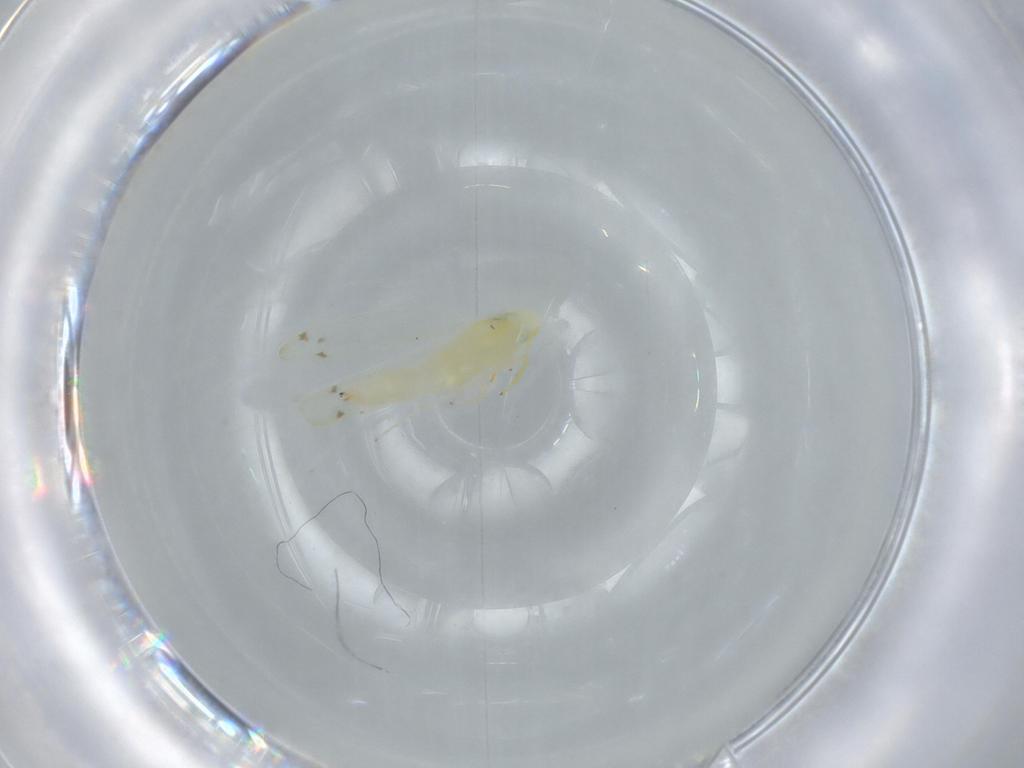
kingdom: Animalia
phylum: Arthropoda
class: Insecta
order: Hemiptera
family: Cicadellidae
